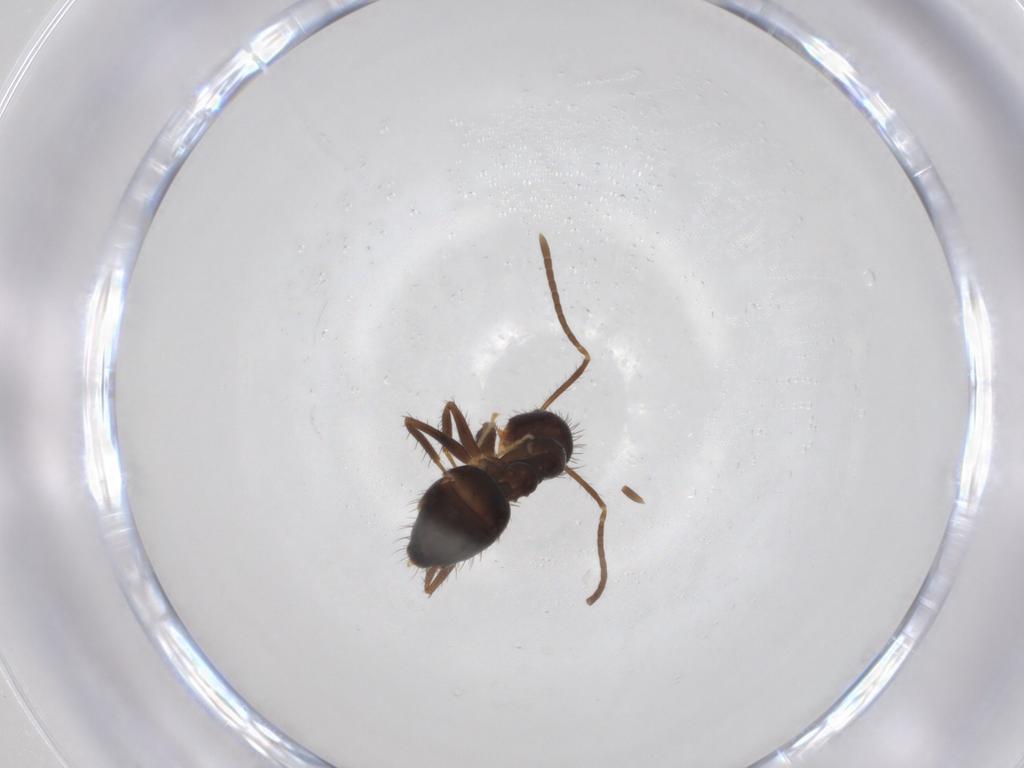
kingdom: Animalia
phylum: Arthropoda
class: Insecta
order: Hymenoptera
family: Formicidae
